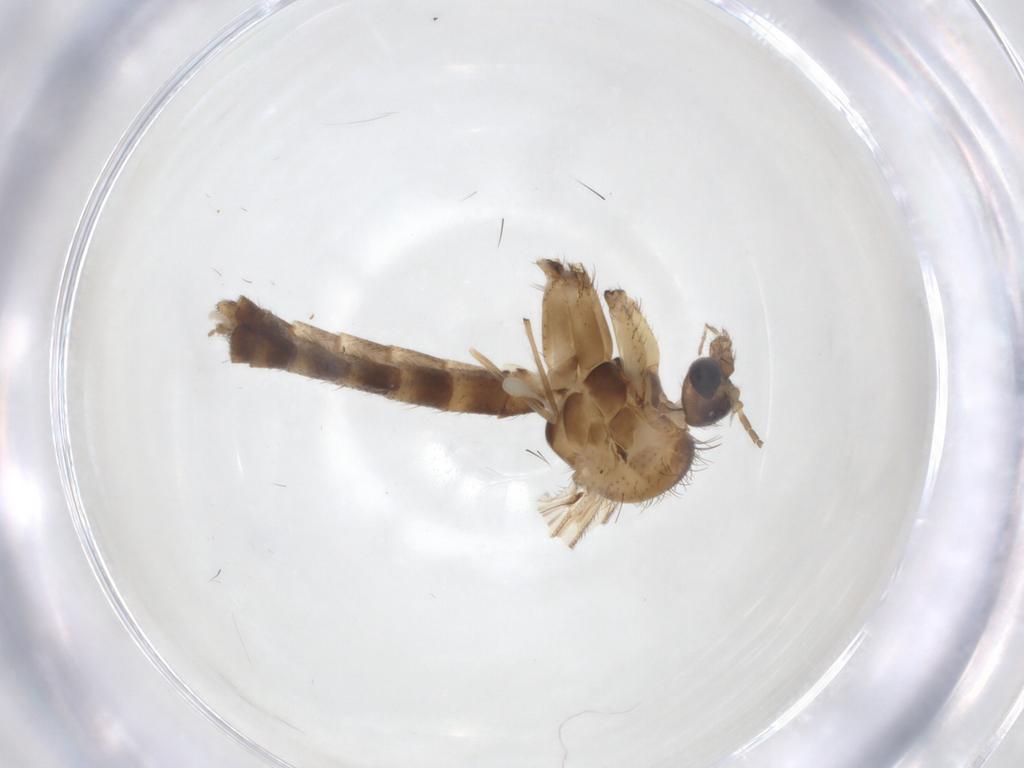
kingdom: Animalia
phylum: Arthropoda
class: Insecta
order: Diptera
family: Mycetophilidae
